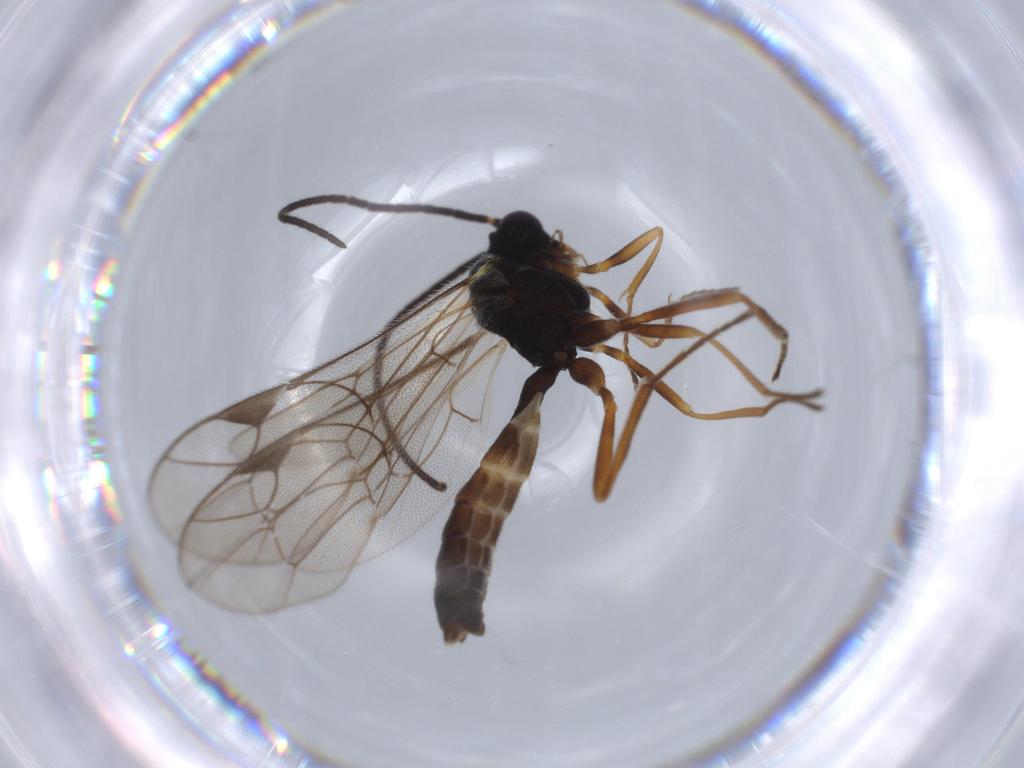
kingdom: Animalia
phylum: Arthropoda
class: Insecta
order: Hymenoptera
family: Ichneumonidae
